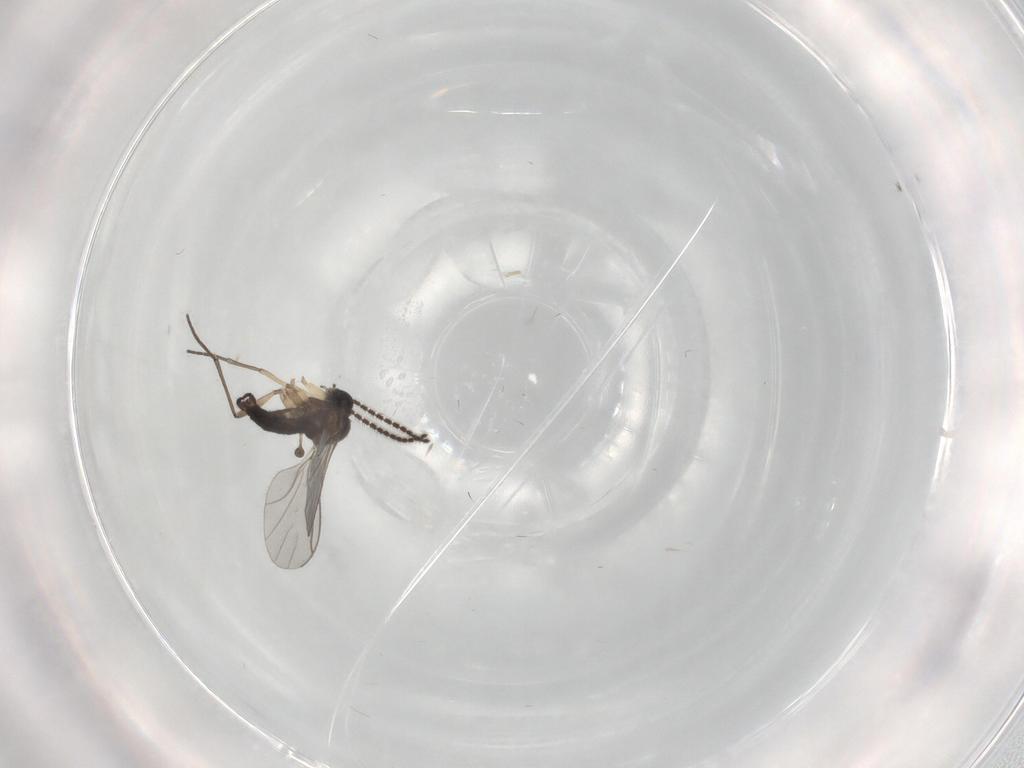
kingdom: Animalia
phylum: Arthropoda
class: Insecta
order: Diptera
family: Sciaridae
